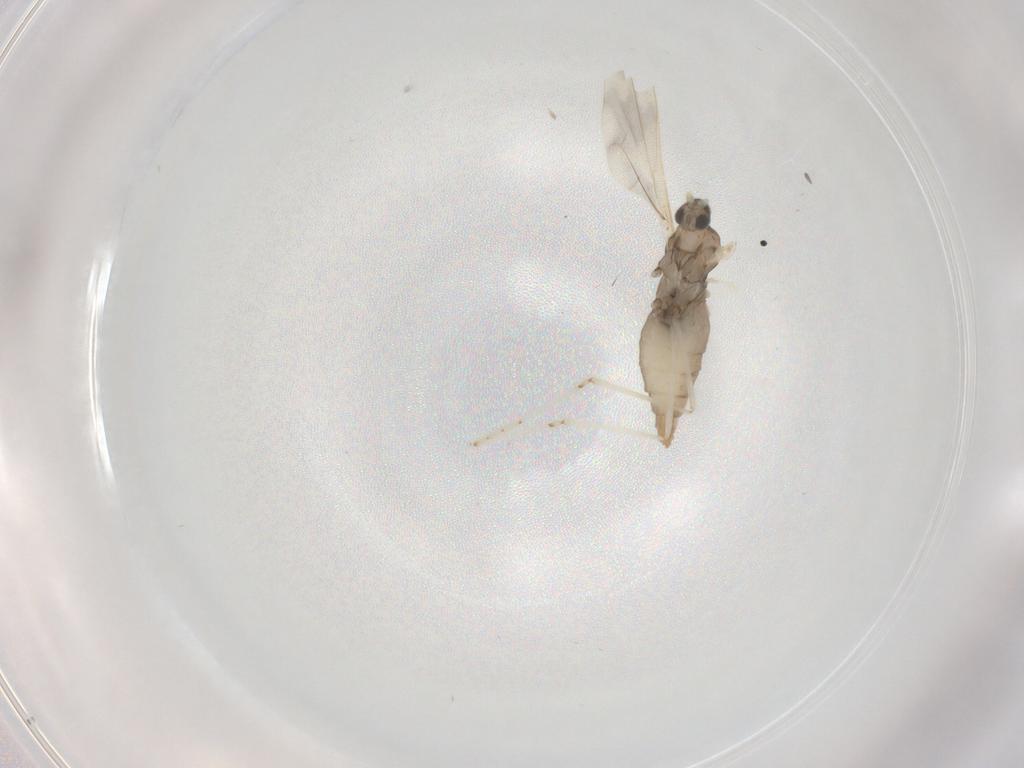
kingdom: Animalia
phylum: Arthropoda
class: Insecta
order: Diptera
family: Cecidomyiidae
